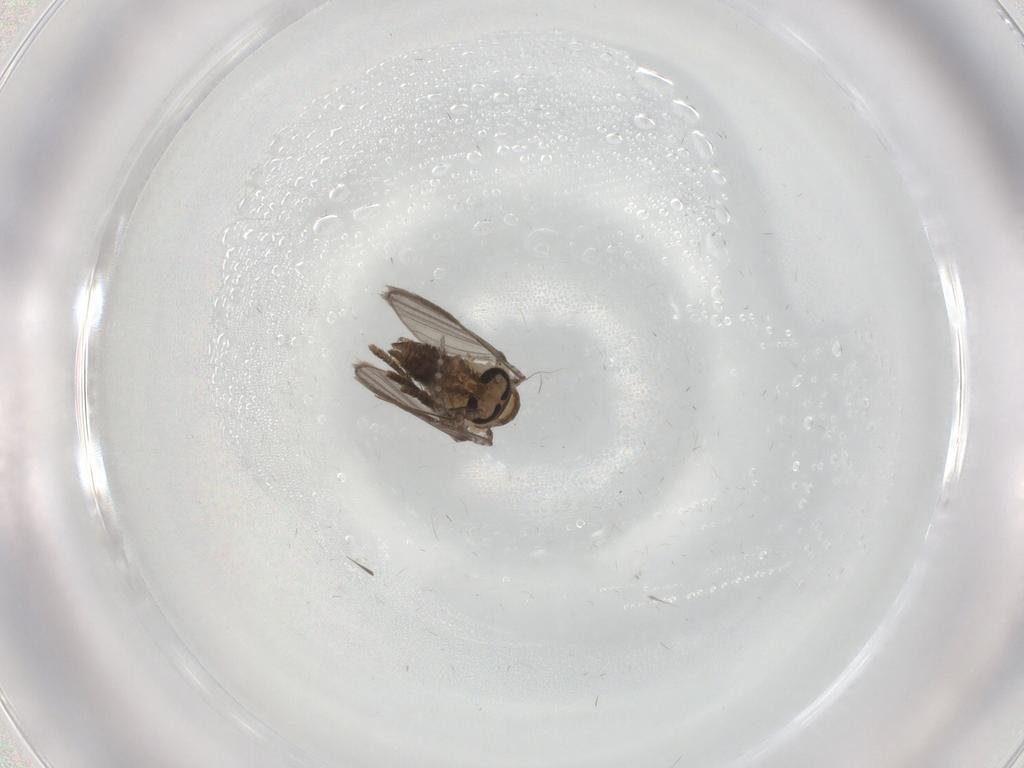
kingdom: Animalia
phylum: Arthropoda
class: Insecta
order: Diptera
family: Psychodidae
